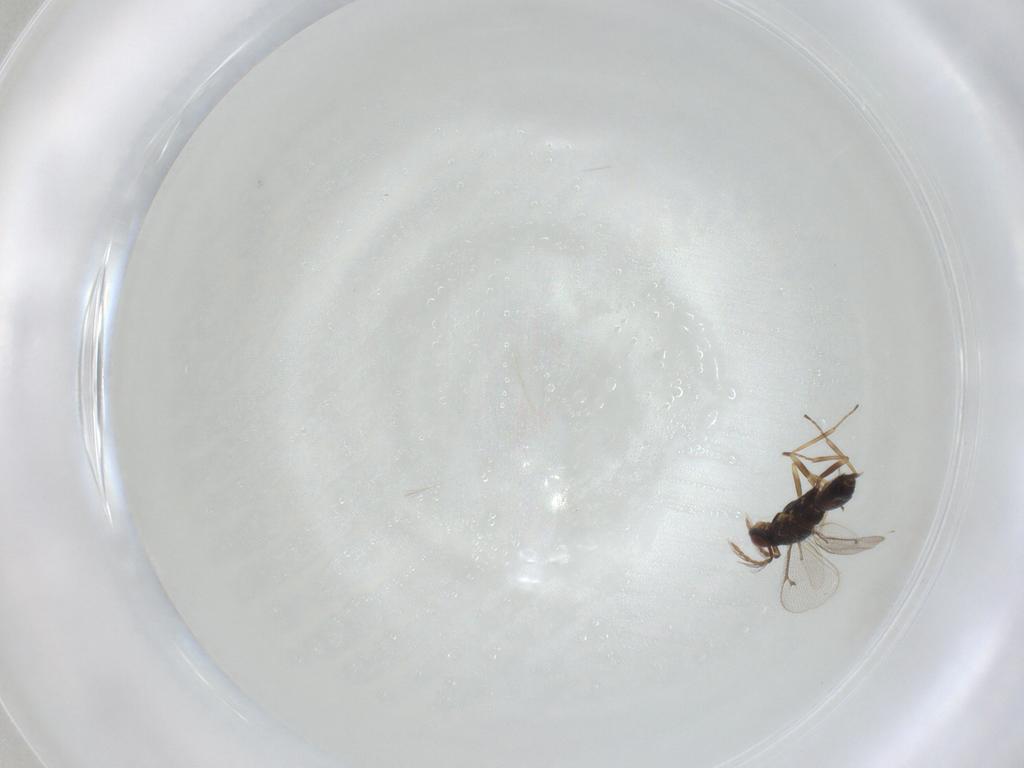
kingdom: Animalia
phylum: Arthropoda
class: Insecta
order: Hymenoptera
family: Eulophidae
